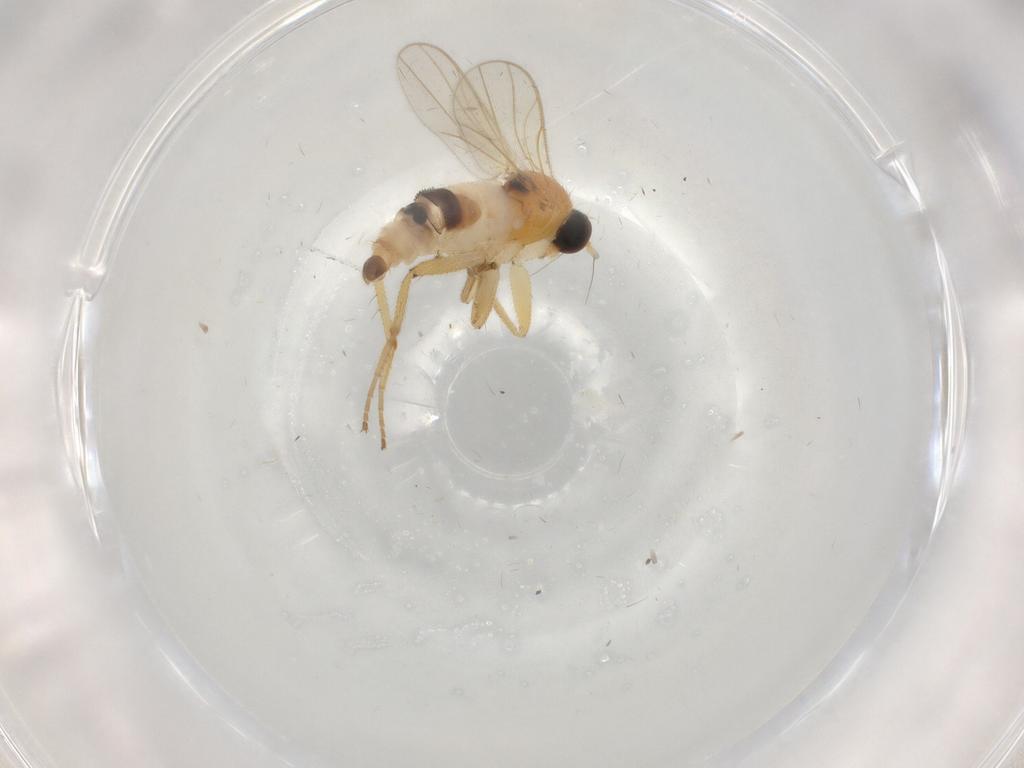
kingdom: Animalia
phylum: Arthropoda
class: Insecta
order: Diptera
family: Hybotidae
